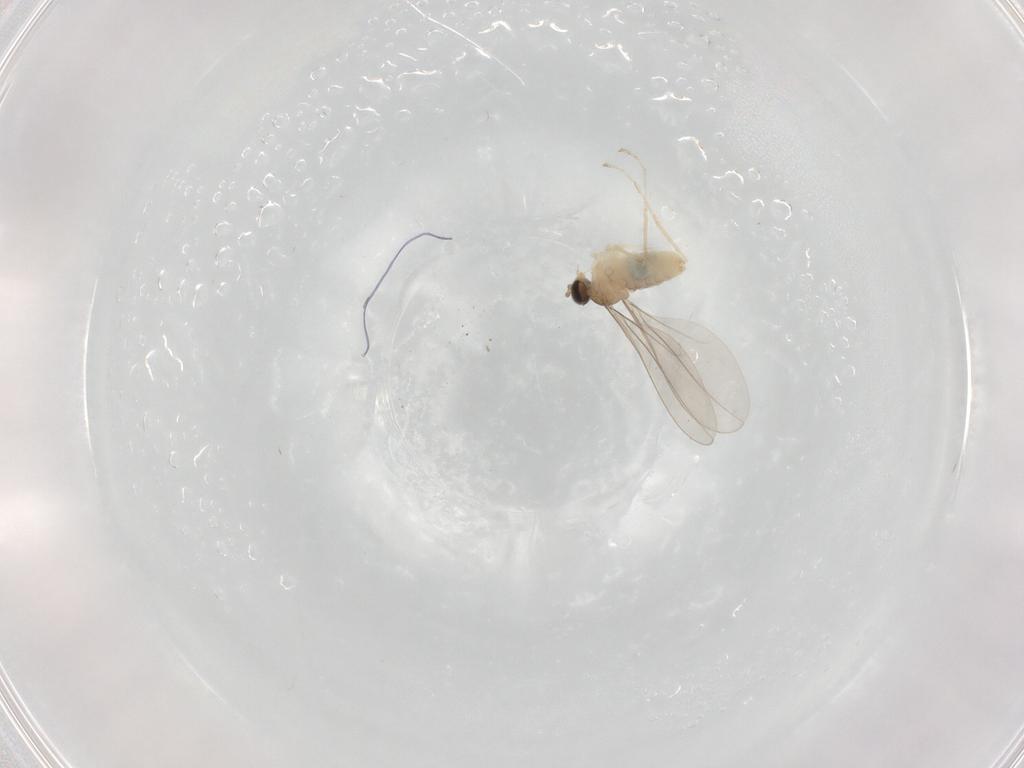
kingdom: Animalia
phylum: Arthropoda
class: Insecta
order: Diptera
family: Cecidomyiidae
